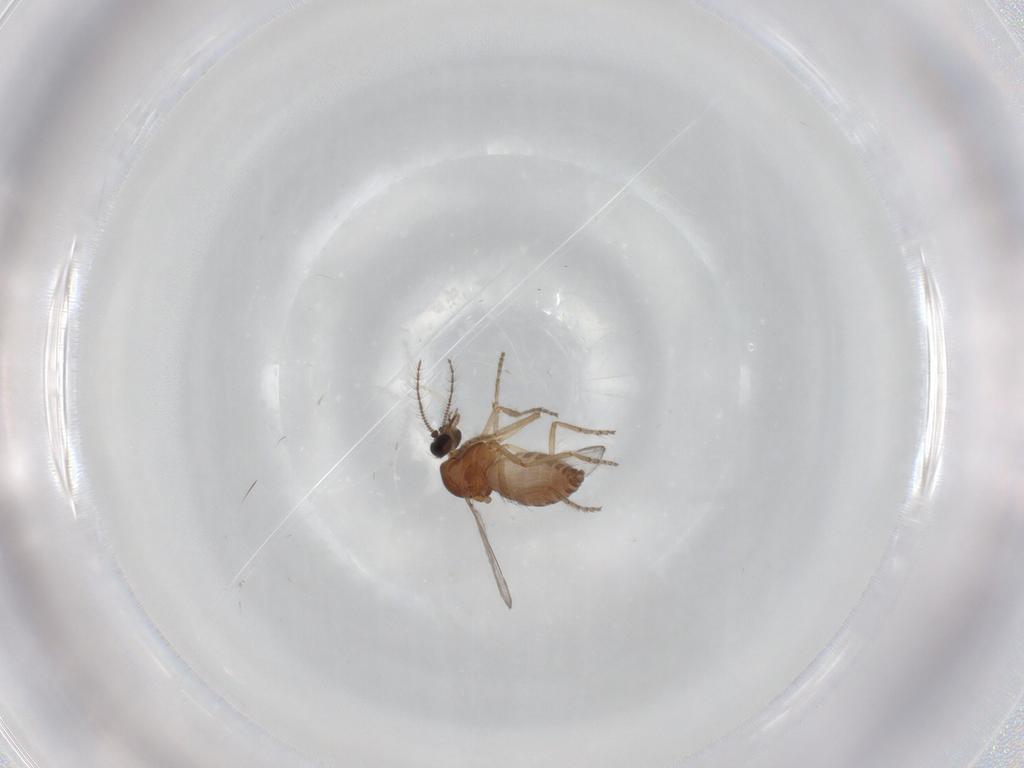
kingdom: Animalia
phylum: Arthropoda
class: Insecta
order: Diptera
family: Ceratopogonidae
